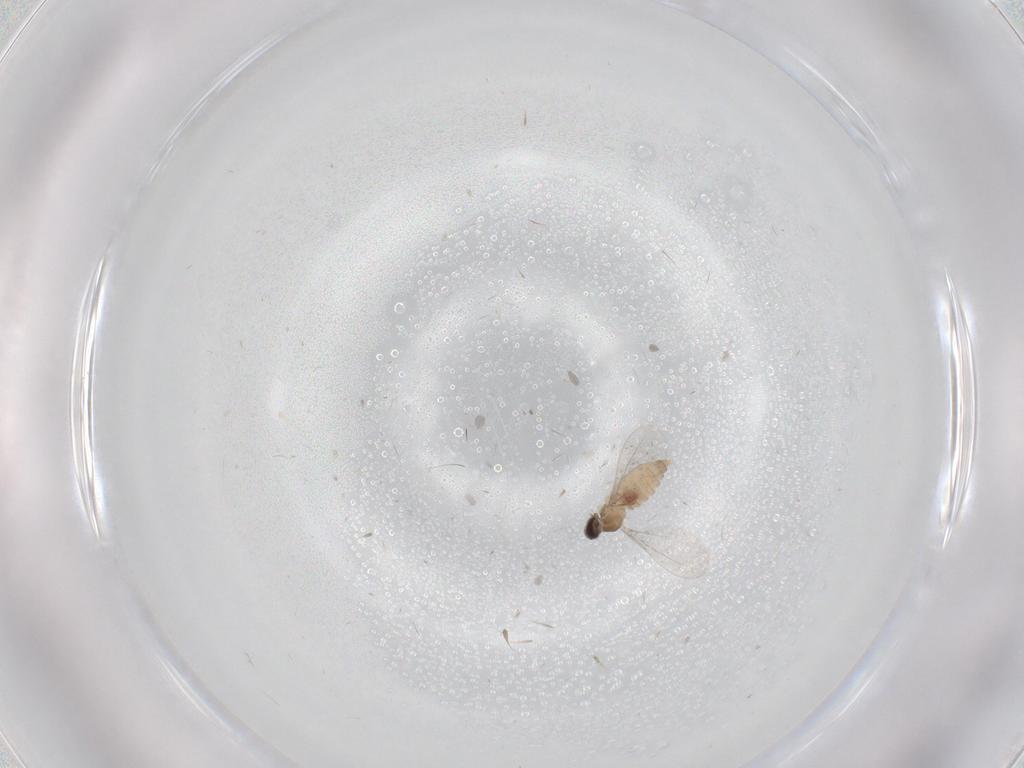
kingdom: Animalia
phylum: Arthropoda
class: Insecta
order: Diptera
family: Cecidomyiidae
